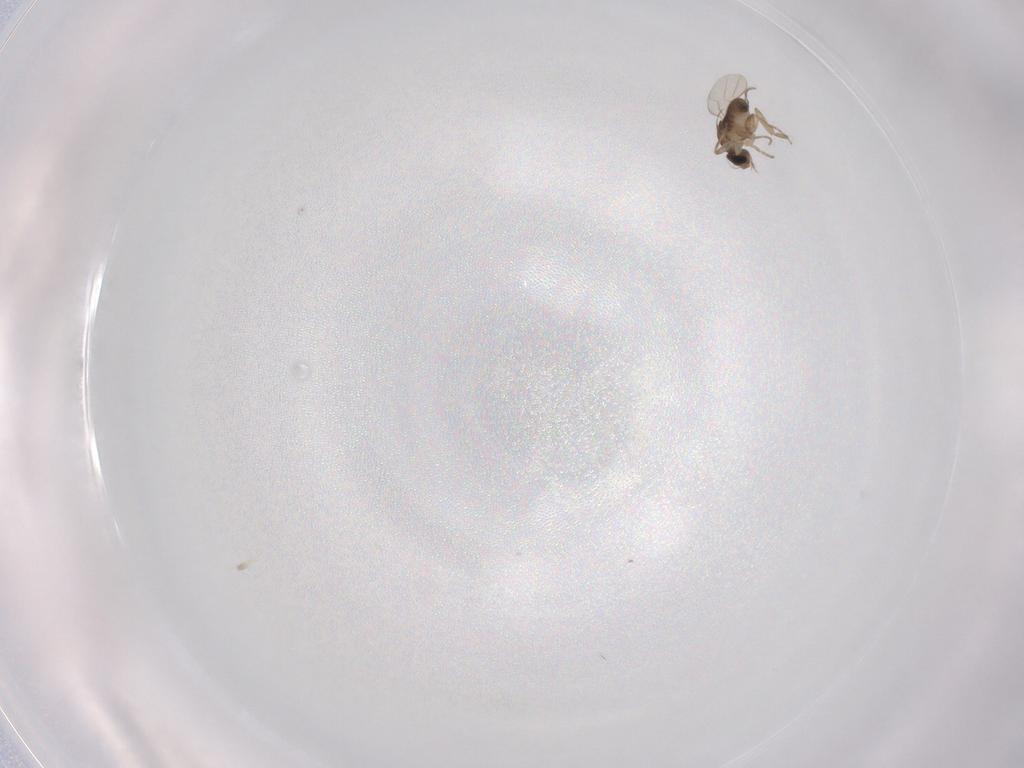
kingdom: Animalia
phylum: Arthropoda
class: Insecta
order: Diptera
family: Phoridae
